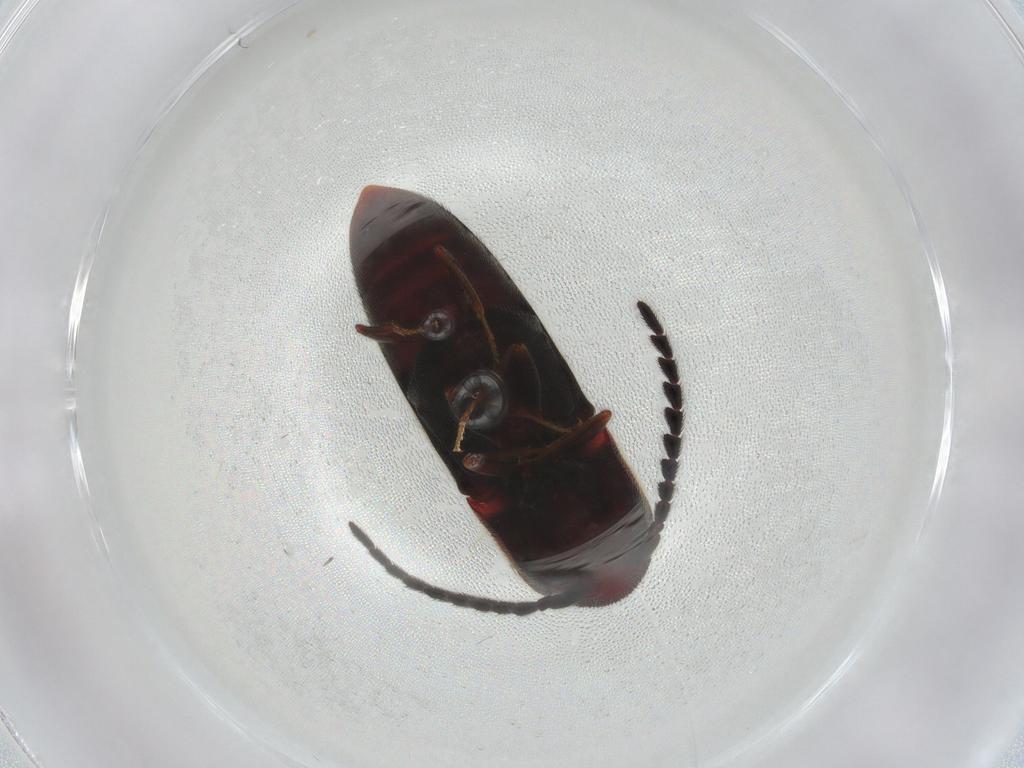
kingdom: Animalia
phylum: Arthropoda
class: Insecta
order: Coleoptera
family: Eucnemidae
